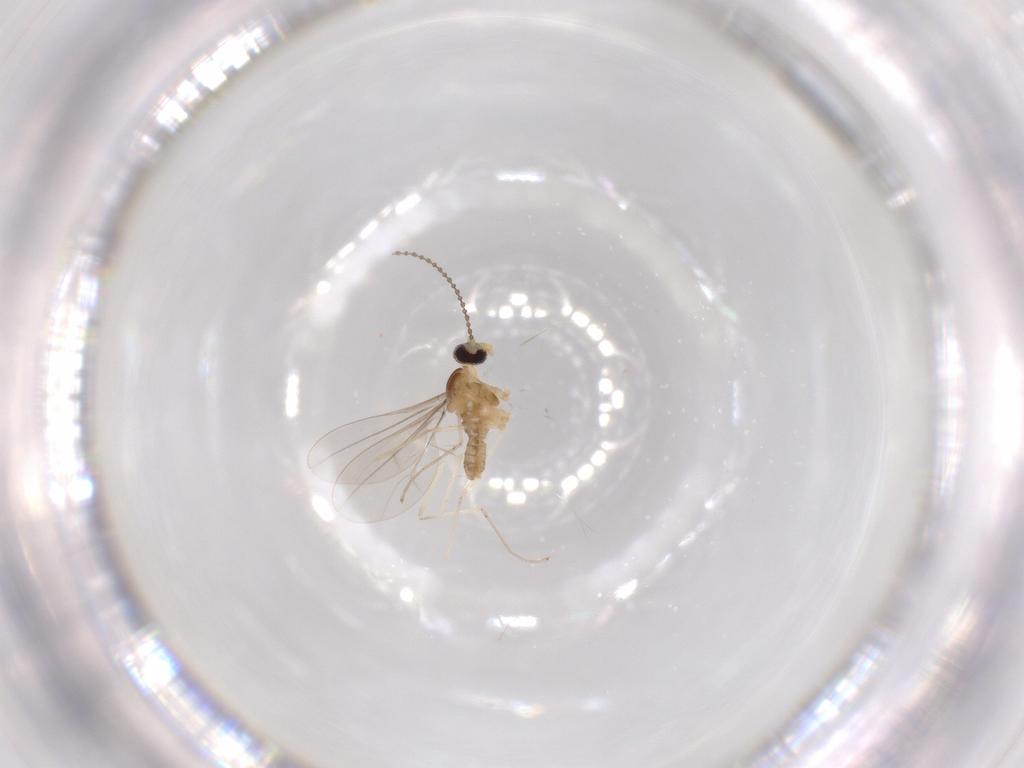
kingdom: Animalia
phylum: Arthropoda
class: Insecta
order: Diptera
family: Cecidomyiidae
